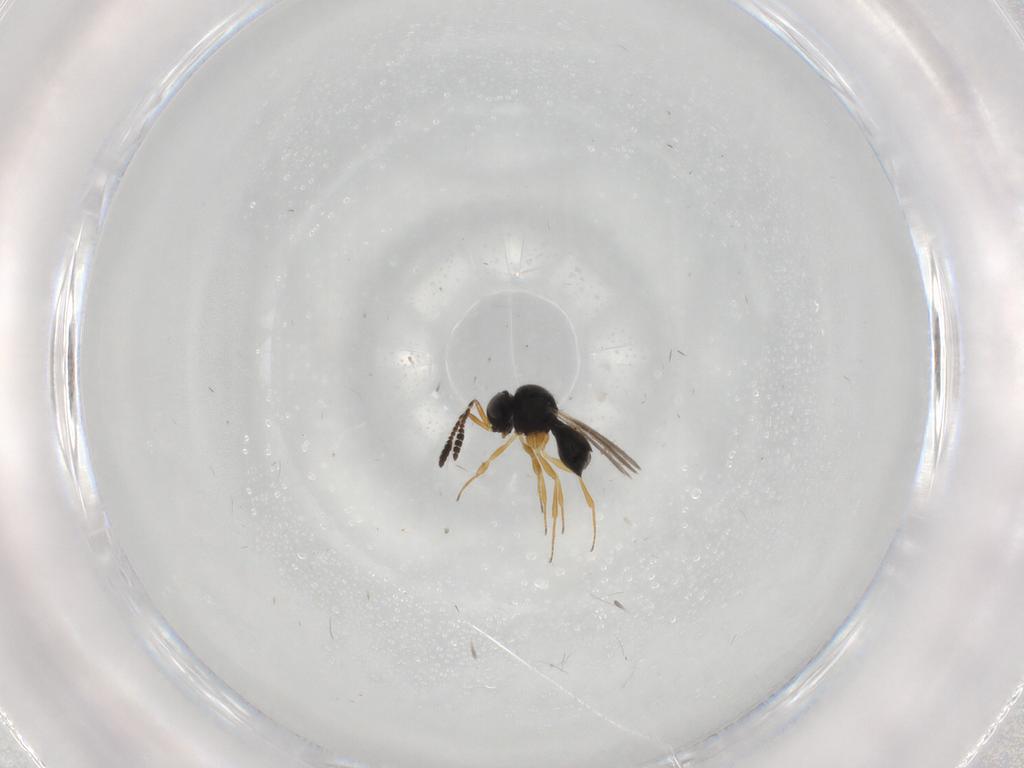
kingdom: Animalia
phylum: Arthropoda
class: Insecta
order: Hymenoptera
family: Scelionidae
